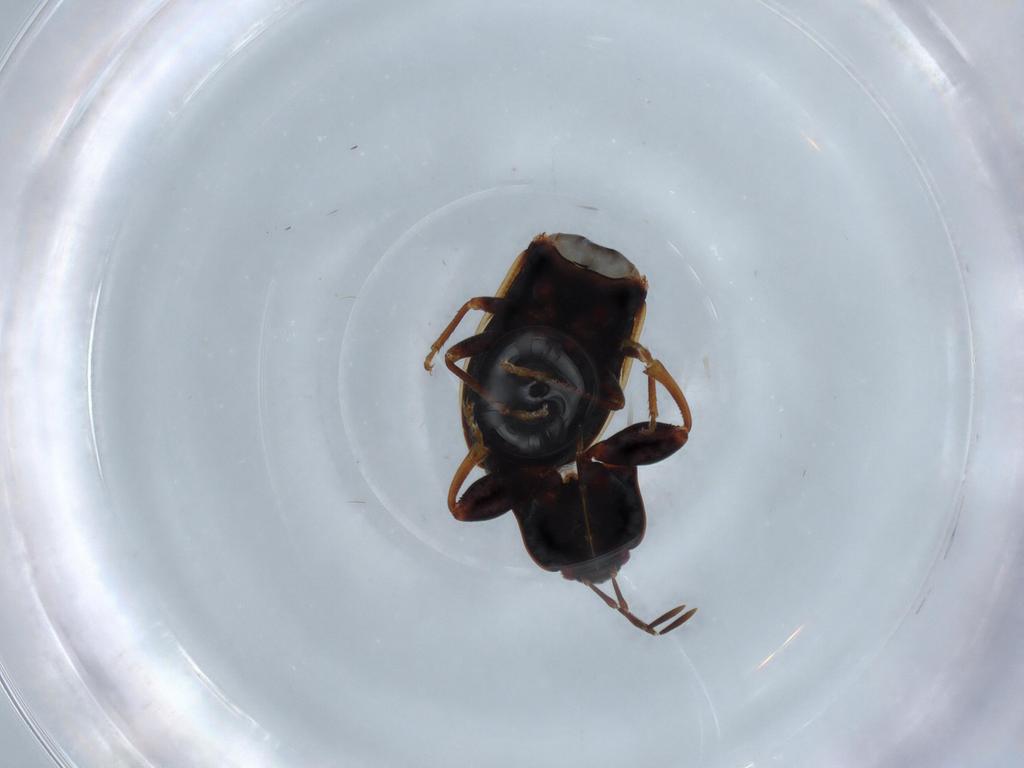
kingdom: Animalia
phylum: Arthropoda
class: Insecta
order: Hemiptera
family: Rhyparochromidae
